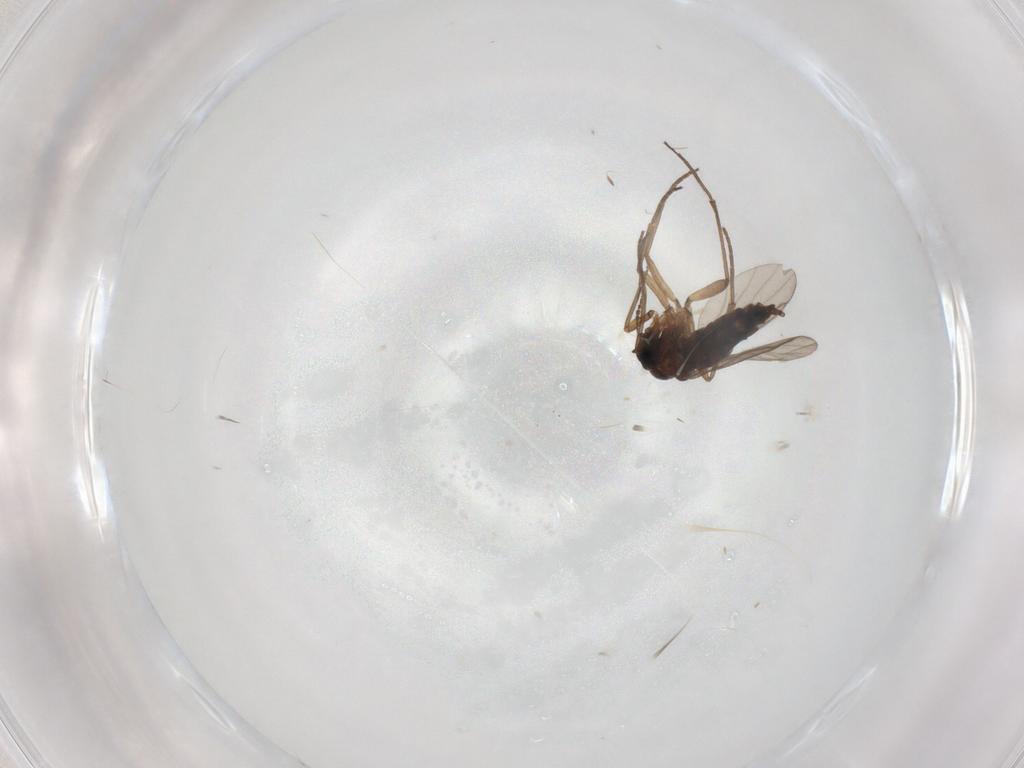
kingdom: Animalia
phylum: Arthropoda
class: Insecta
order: Diptera
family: Sciaridae
